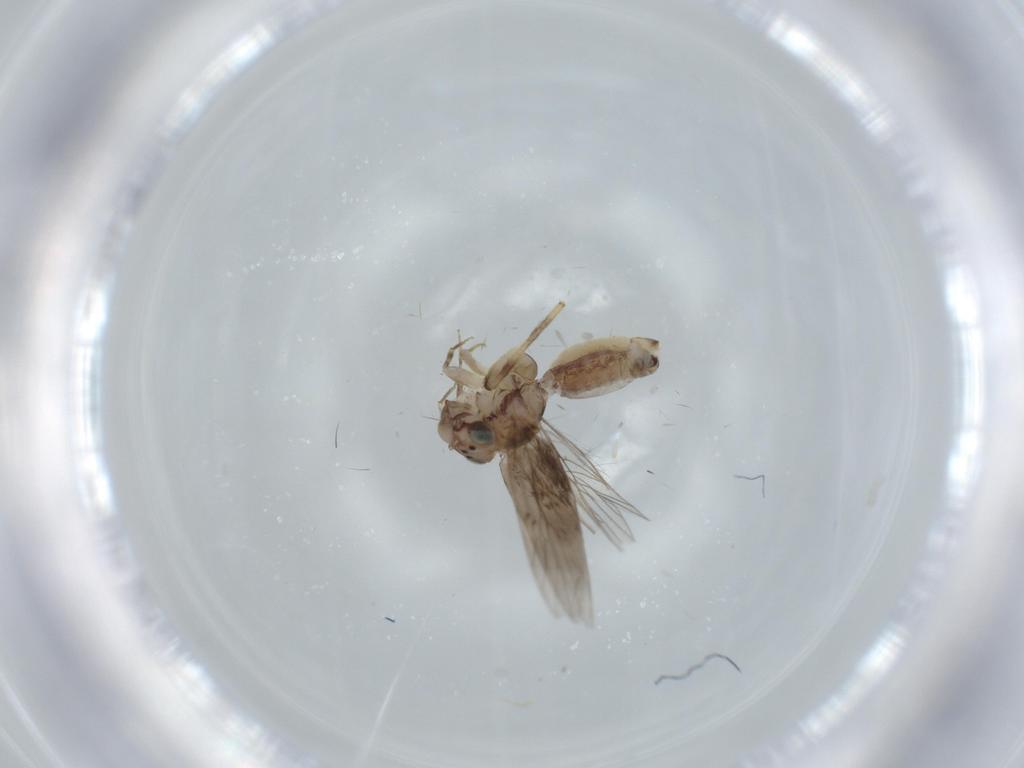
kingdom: Animalia
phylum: Arthropoda
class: Insecta
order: Psocodea
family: Lepidopsocidae
